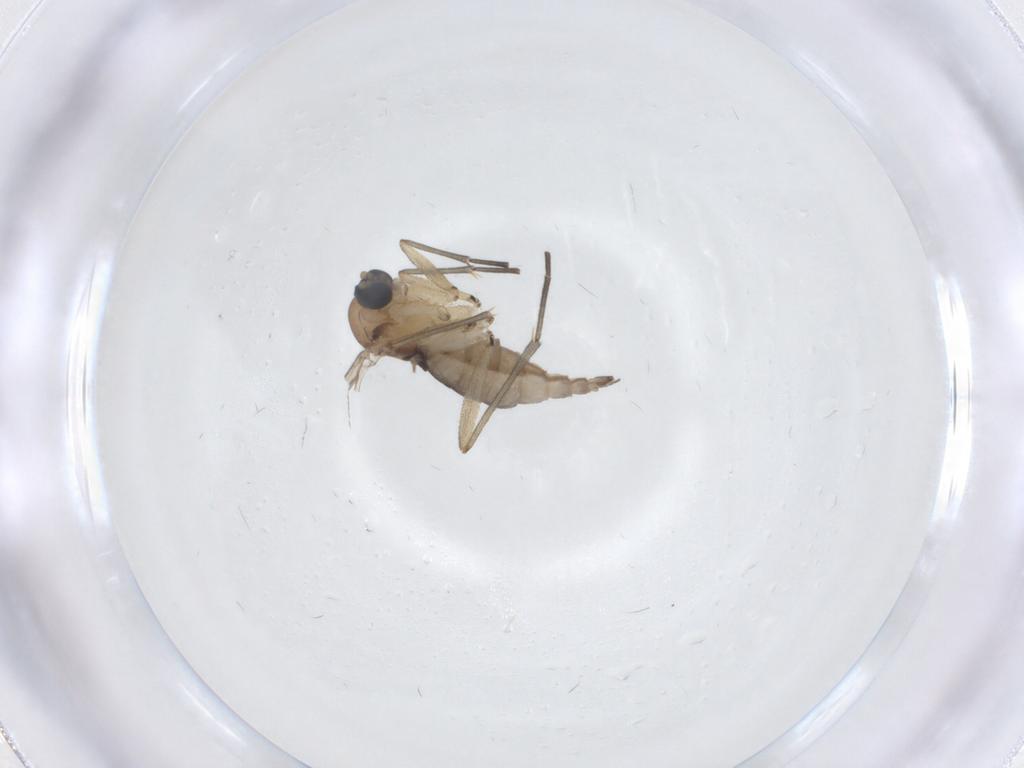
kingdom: Animalia
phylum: Arthropoda
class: Insecta
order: Diptera
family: Sciaridae
